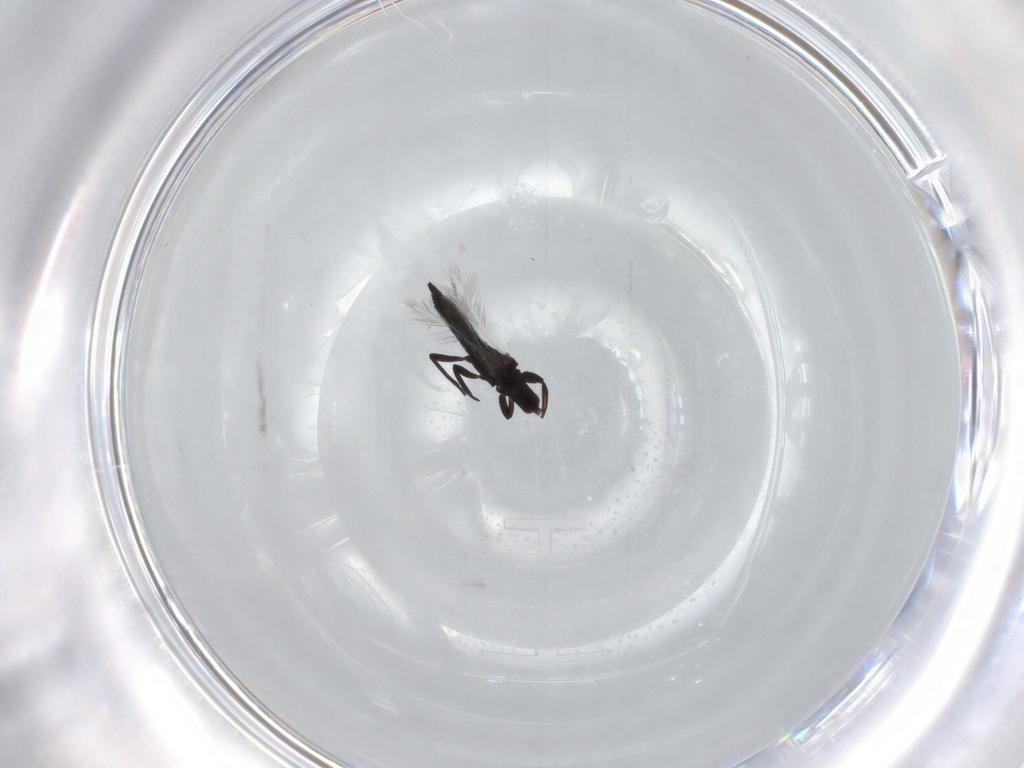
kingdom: Animalia
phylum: Arthropoda
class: Insecta
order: Thysanoptera
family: Phlaeothripidae
